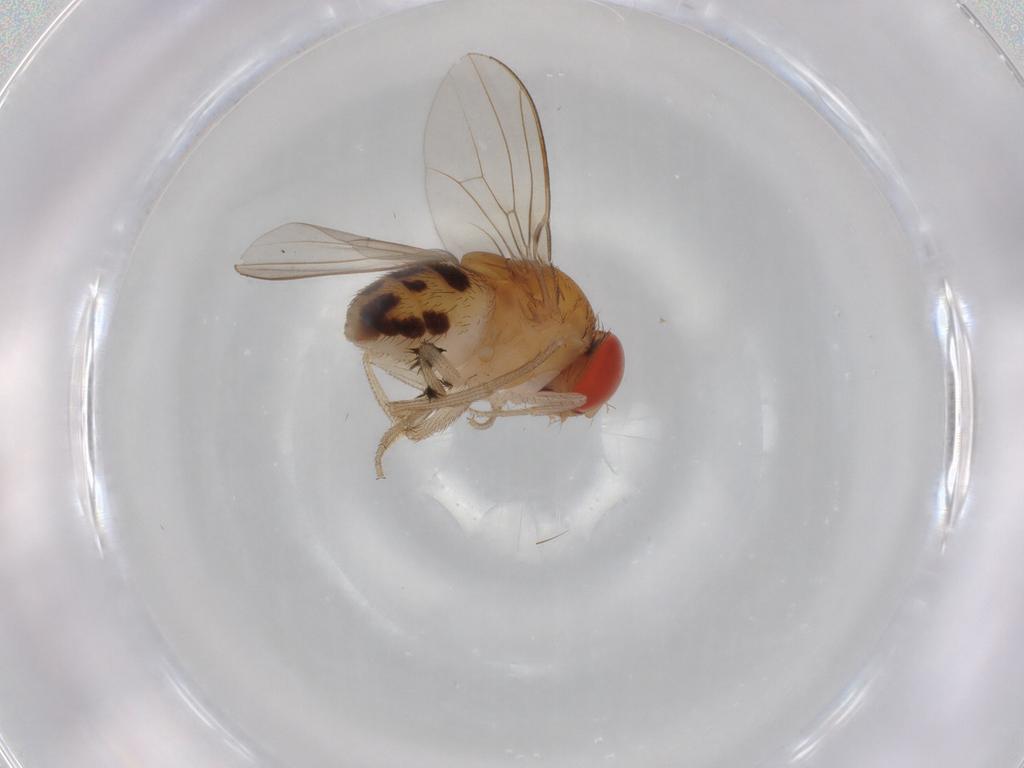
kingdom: Animalia
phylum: Arthropoda
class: Insecta
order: Diptera
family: Drosophilidae
